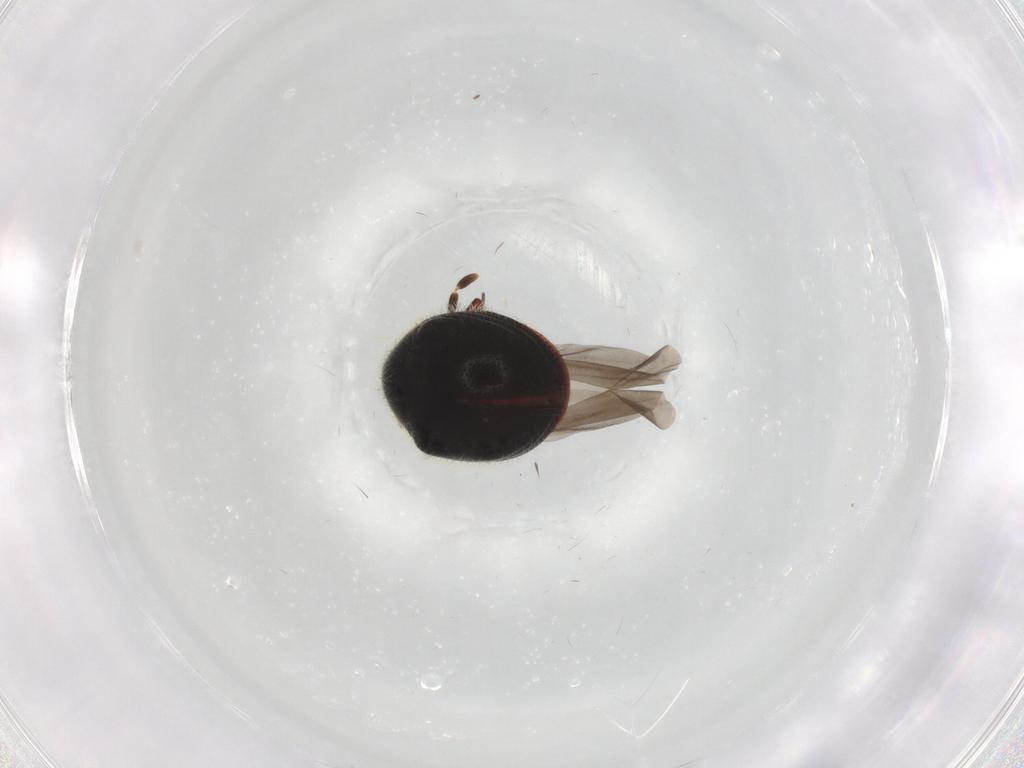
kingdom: Animalia
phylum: Arthropoda
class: Insecta
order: Coleoptera
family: Ptinidae
